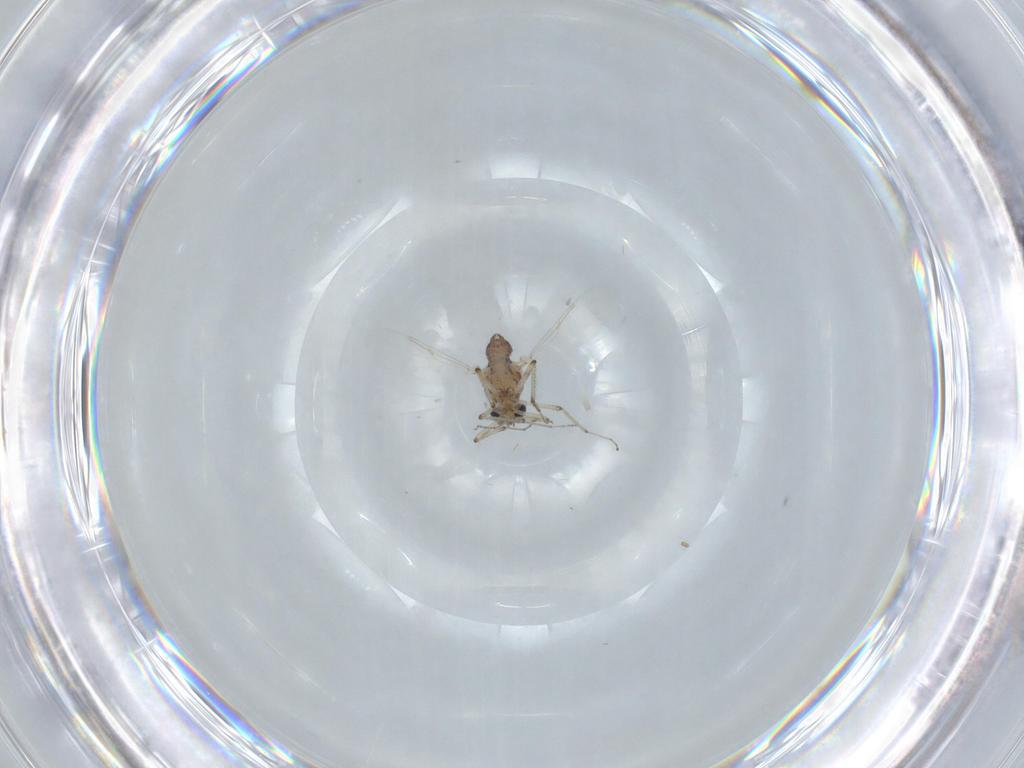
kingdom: Animalia
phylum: Arthropoda
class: Insecta
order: Diptera
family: Ceratopogonidae
